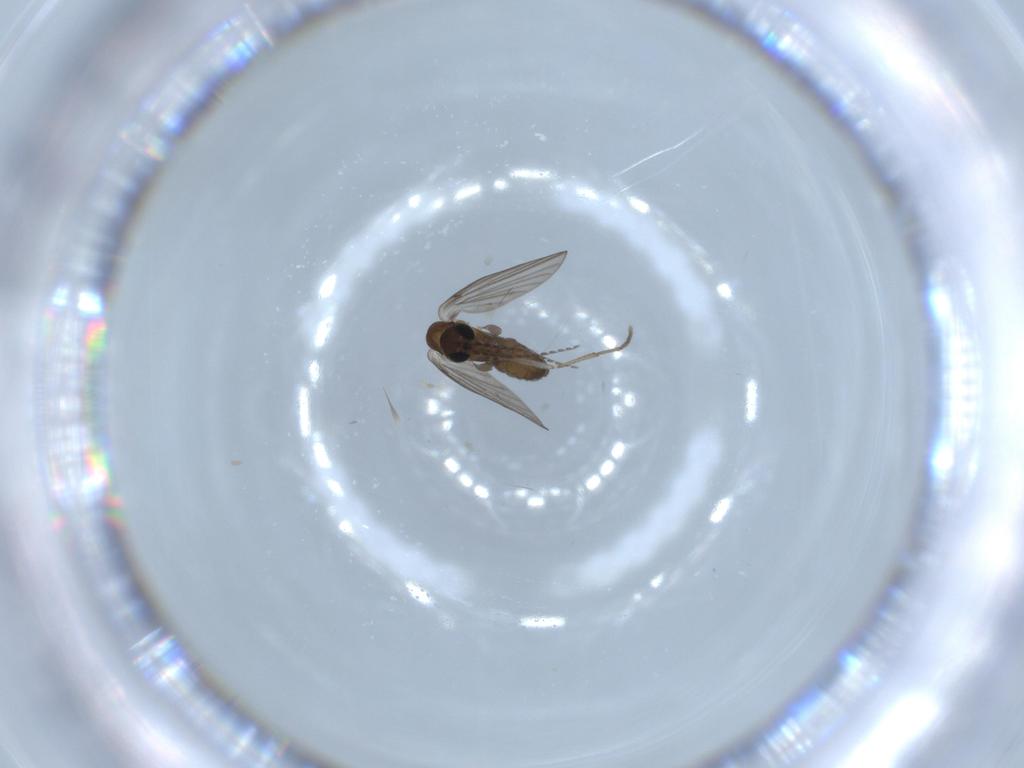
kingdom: Animalia
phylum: Arthropoda
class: Insecta
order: Diptera
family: Psychodidae
